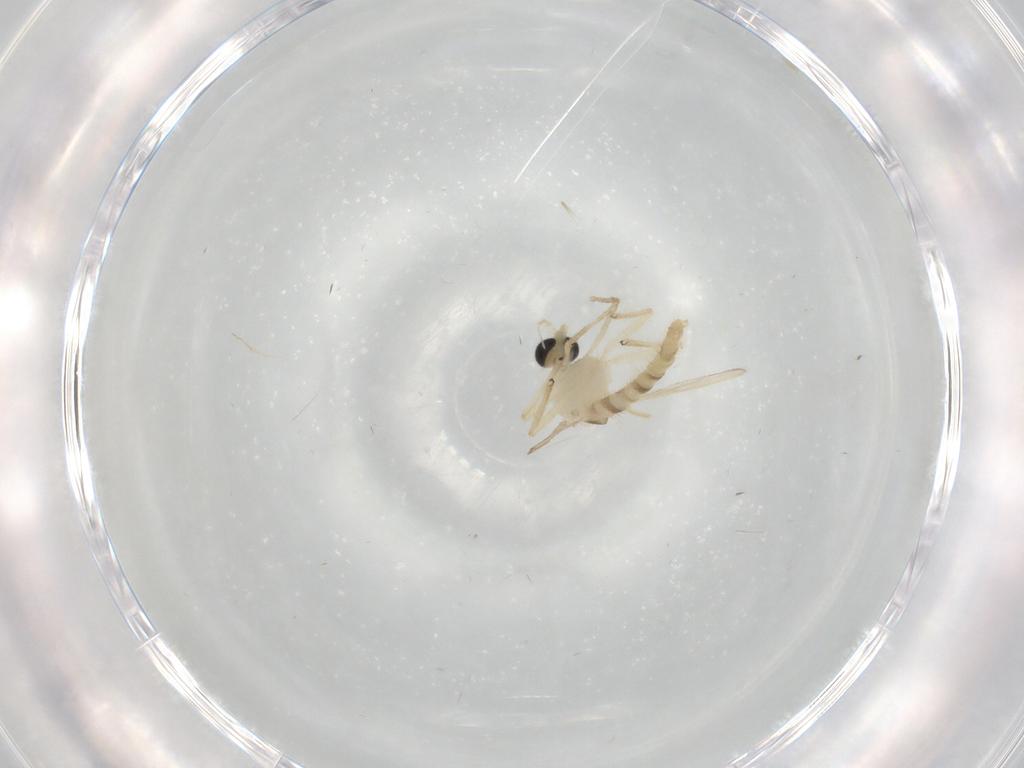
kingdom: Animalia
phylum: Arthropoda
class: Insecta
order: Diptera
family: Chironomidae
